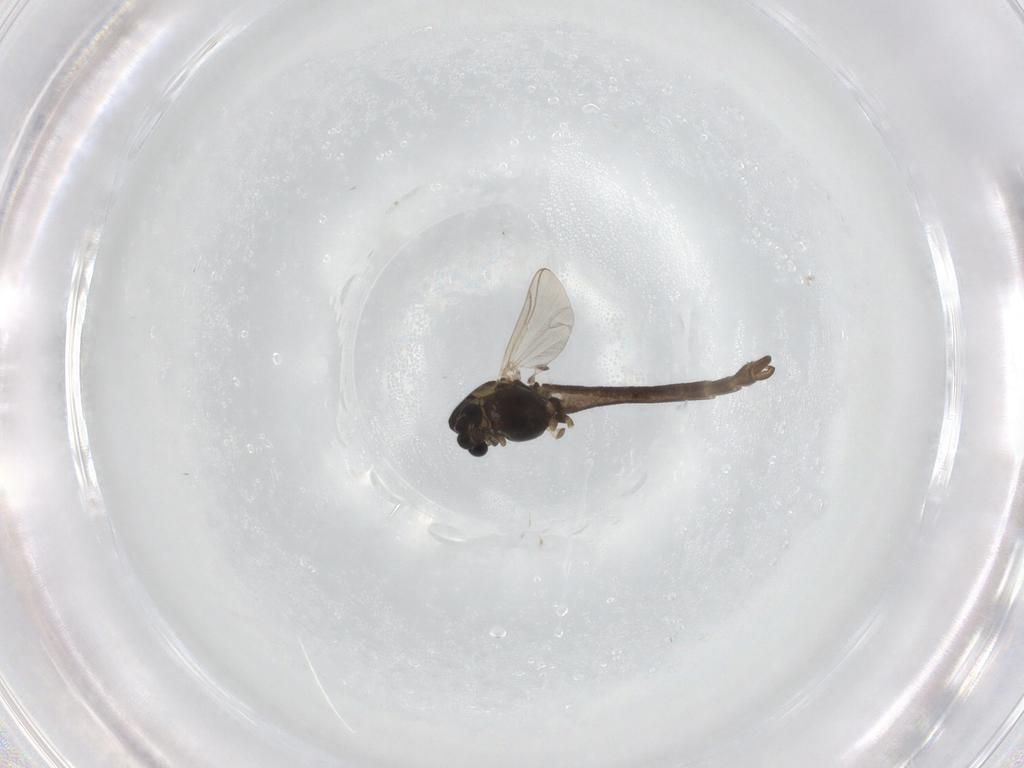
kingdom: Animalia
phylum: Arthropoda
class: Insecta
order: Diptera
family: Chironomidae
